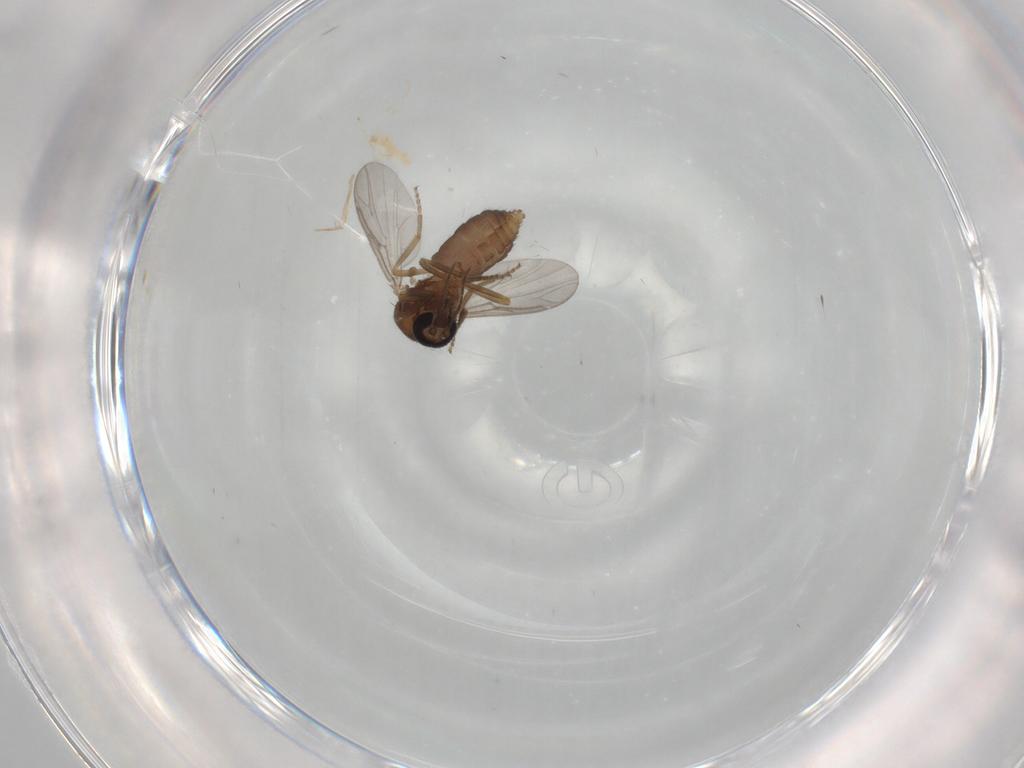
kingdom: Animalia
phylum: Arthropoda
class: Insecta
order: Diptera
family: Ceratopogonidae
